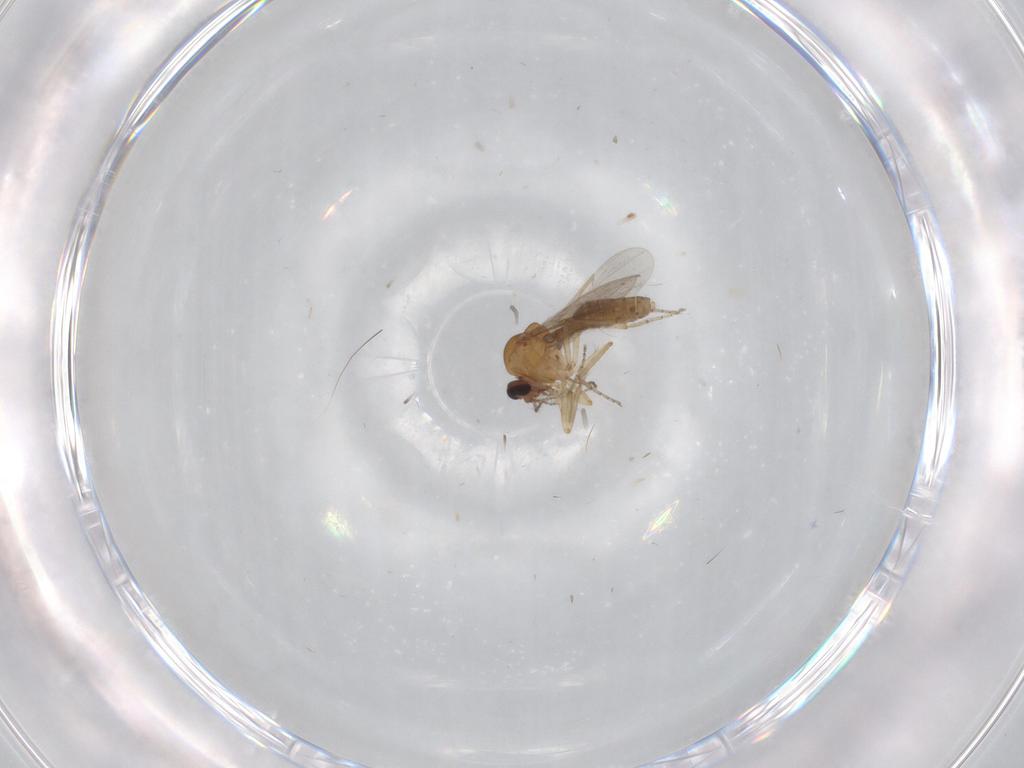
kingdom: Animalia
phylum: Arthropoda
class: Insecta
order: Diptera
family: Ceratopogonidae
